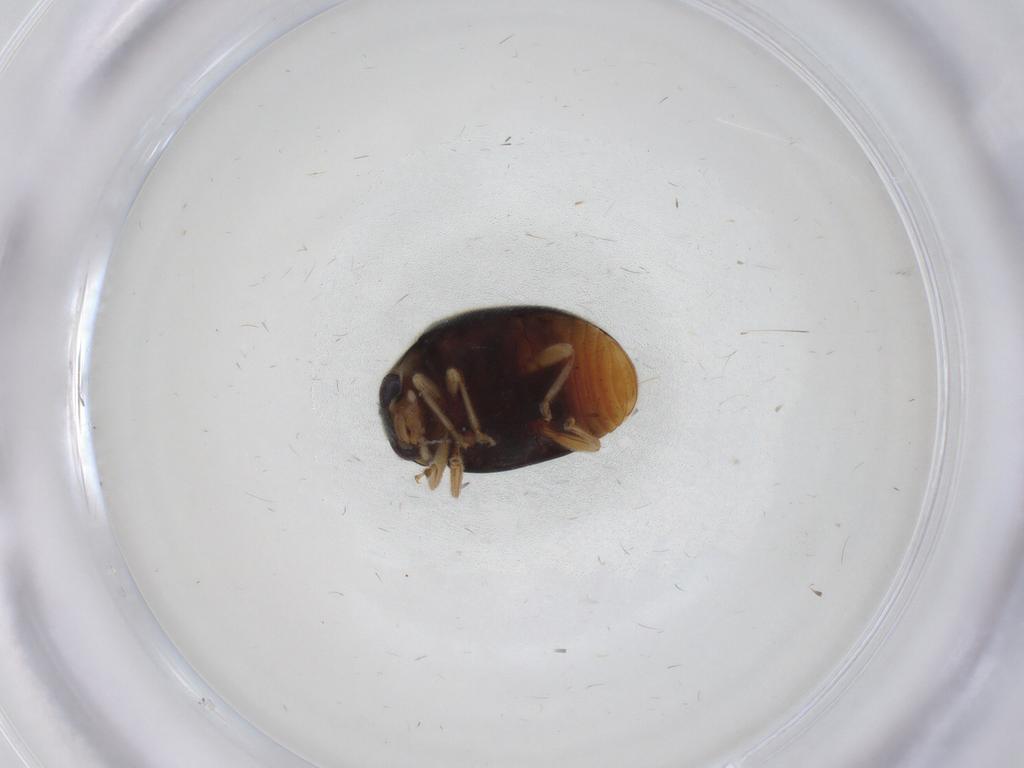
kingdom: Animalia
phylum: Arthropoda
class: Insecta
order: Coleoptera
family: Coccinellidae
